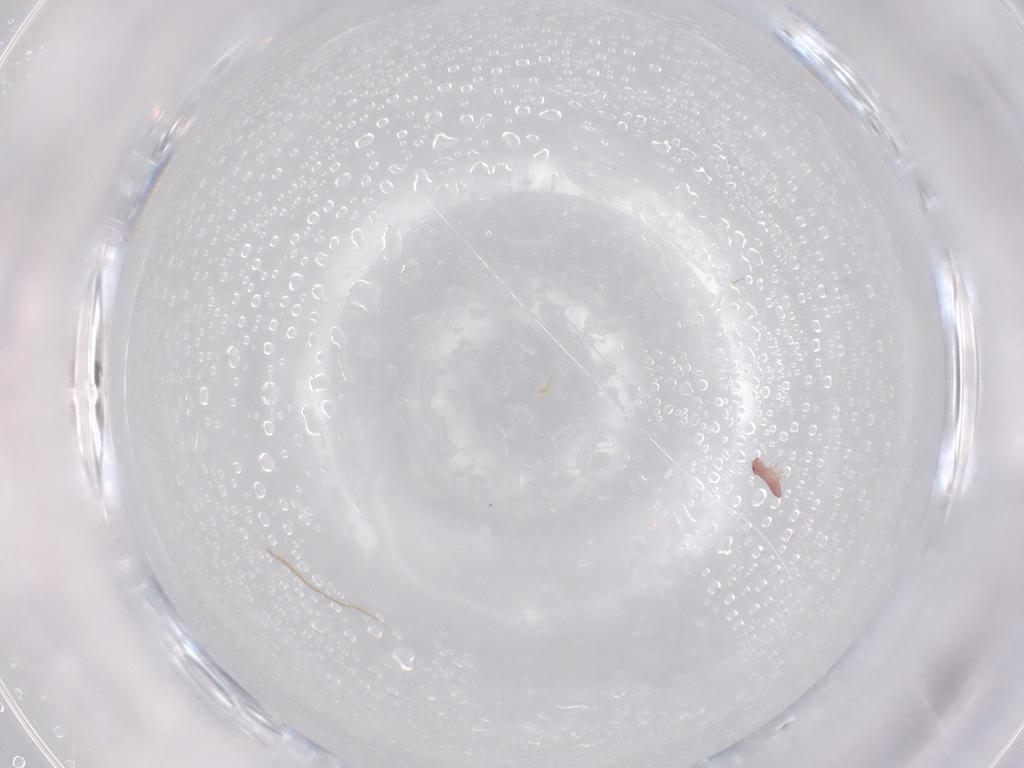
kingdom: Animalia
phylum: Arthropoda
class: Collembola
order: Poduromorpha
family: Hypogastruridae
